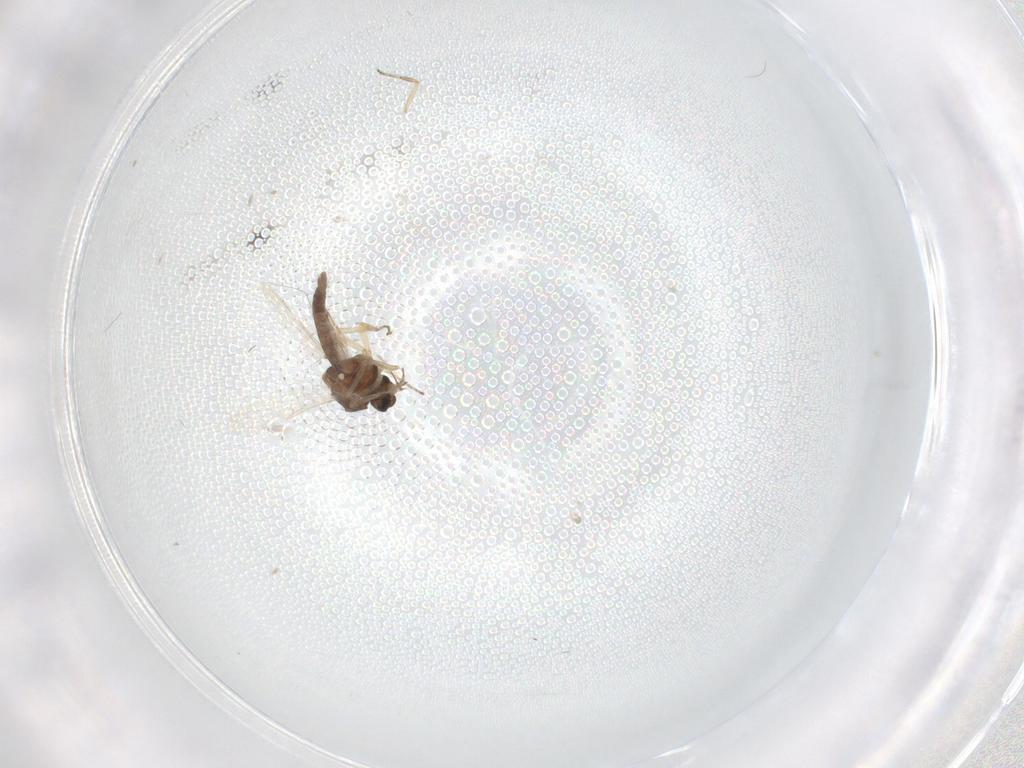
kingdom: Animalia
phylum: Arthropoda
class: Insecta
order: Diptera
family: Ceratopogonidae
